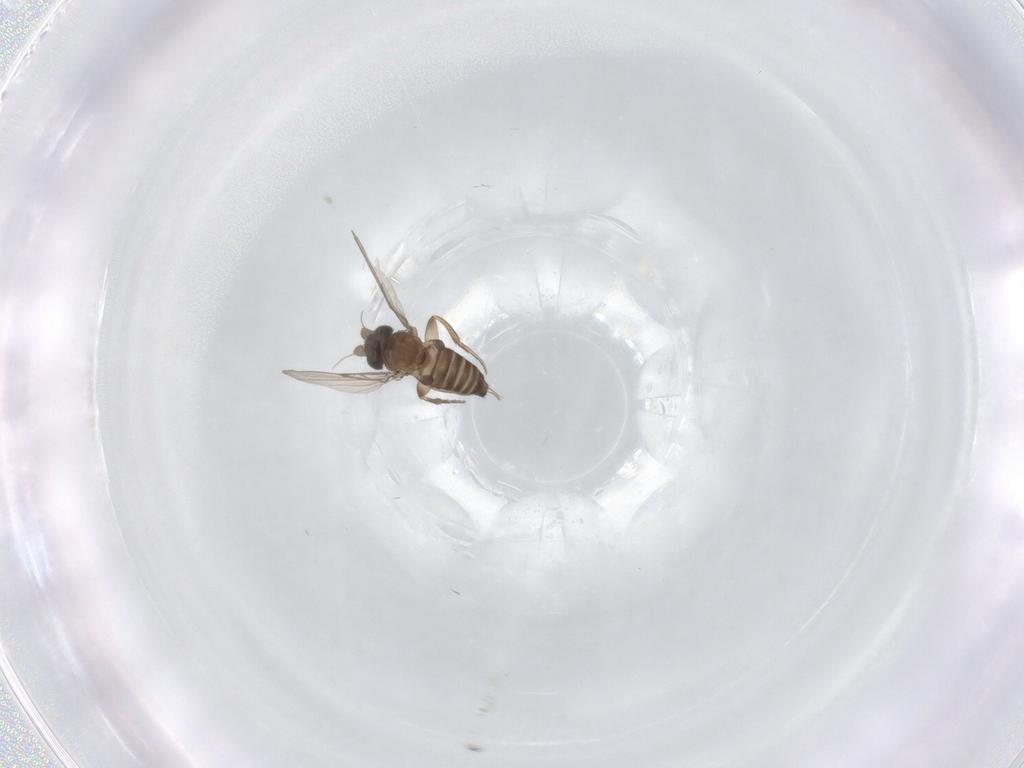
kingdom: Animalia
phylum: Arthropoda
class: Insecta
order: Diptera
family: Phoridae
